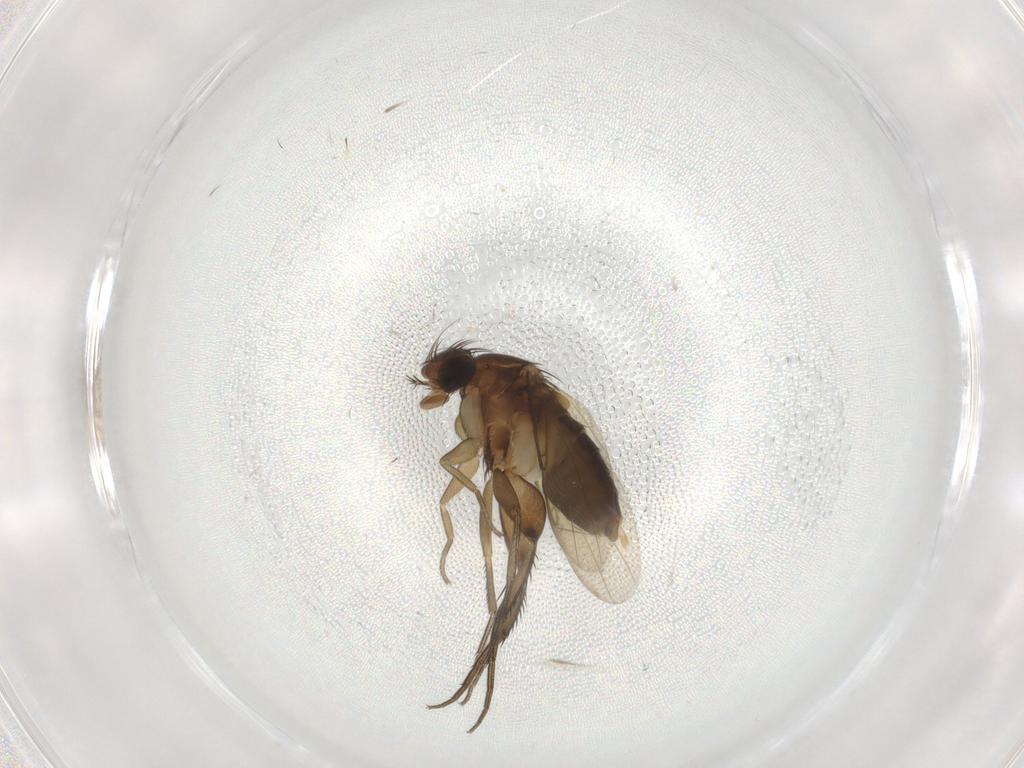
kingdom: Animalia
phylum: Arthropoda
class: Insecta
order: Diptera
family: Phoridae
